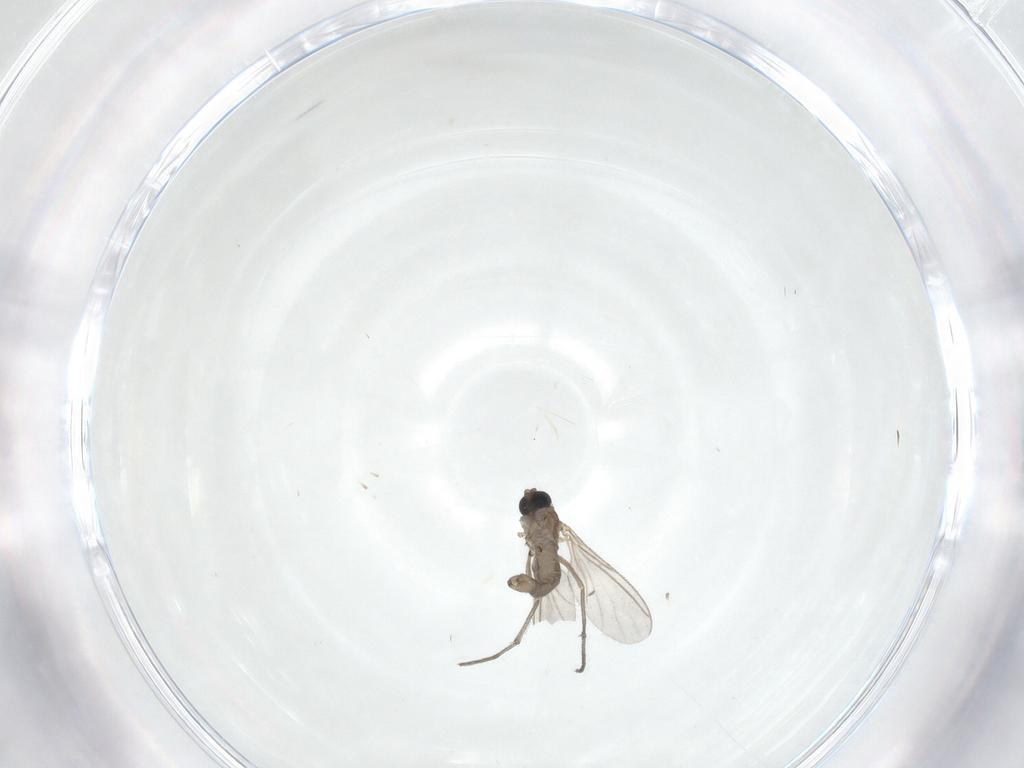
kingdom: Animalia
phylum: Arthropoda
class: Insecta
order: Diptera
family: Sciaridae
